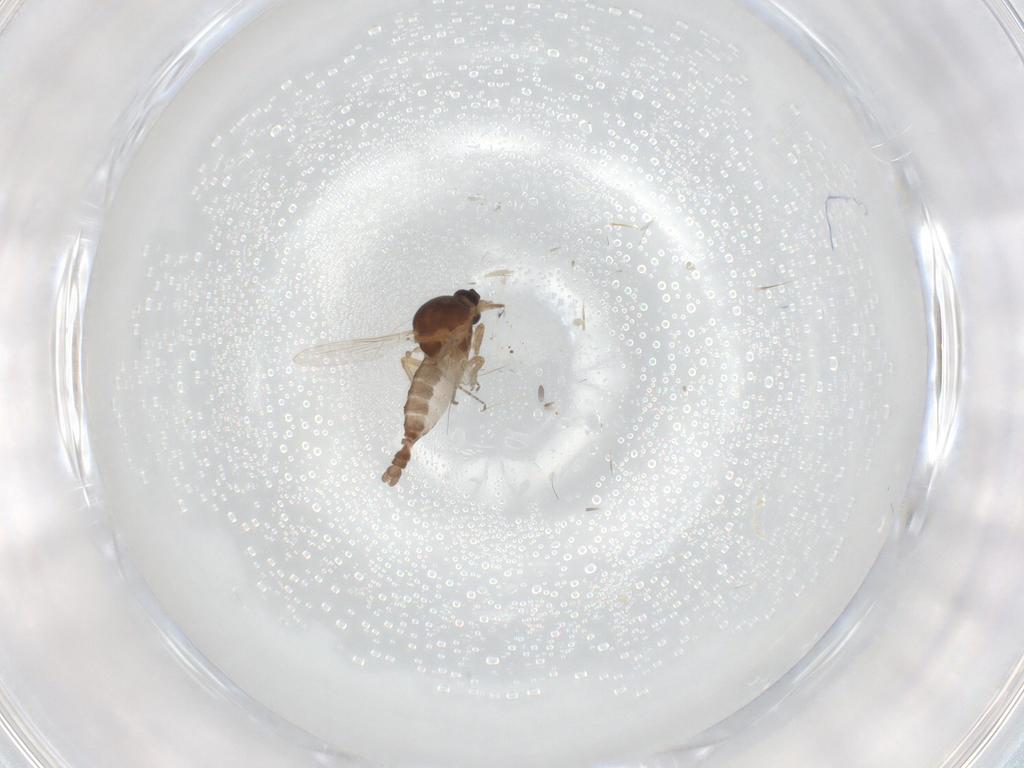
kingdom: Animalia
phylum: Arthropoda
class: Insecta
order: Diptera
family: Ceratopogonidae
